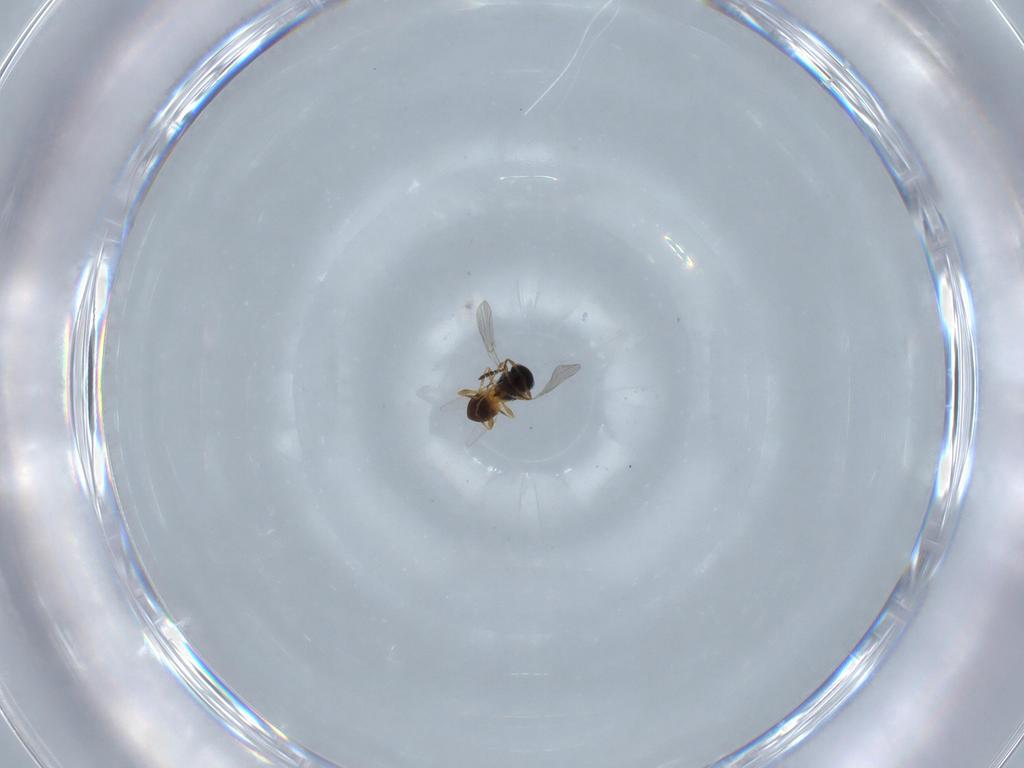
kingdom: Animalia
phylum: Arthropoda
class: Insecta
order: Hymenoptera
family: Platygastridae
